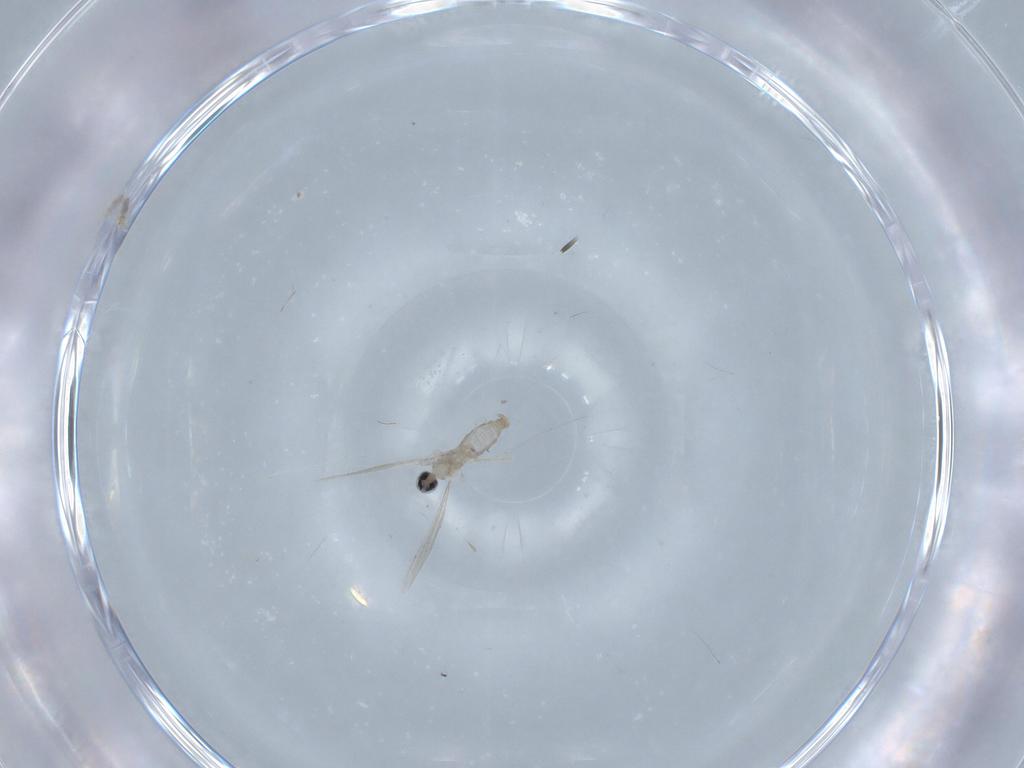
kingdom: Animalia
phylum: Arthropoda
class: Insecta
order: Diptera
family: Cecidomyiidae
